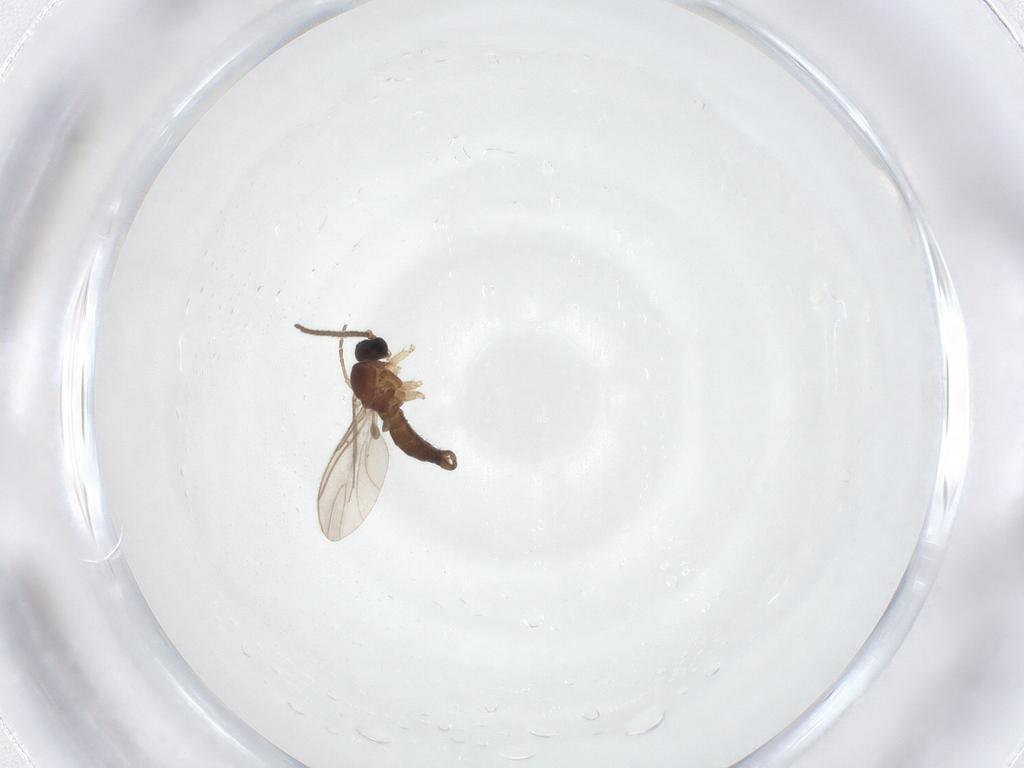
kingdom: Animalia
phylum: Arthropoda
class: Insecta
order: Diptera
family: Sciaridae
